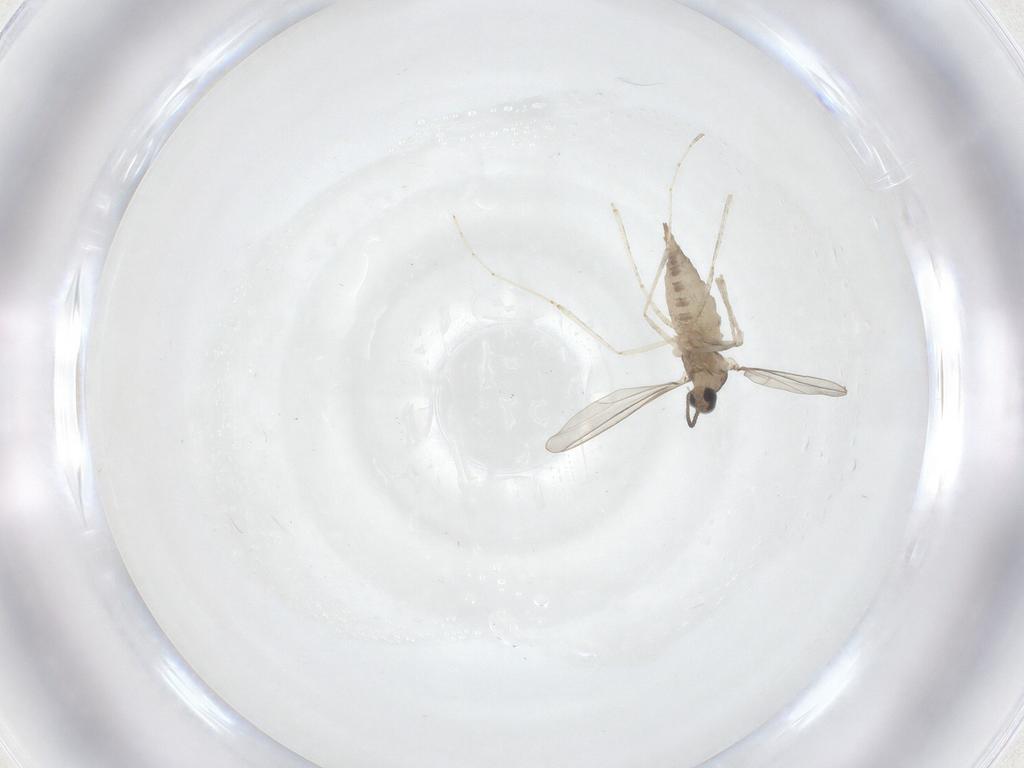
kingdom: Animalia
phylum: Arthropoda
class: Insecta
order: Diptera
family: Cecidomyiidae
